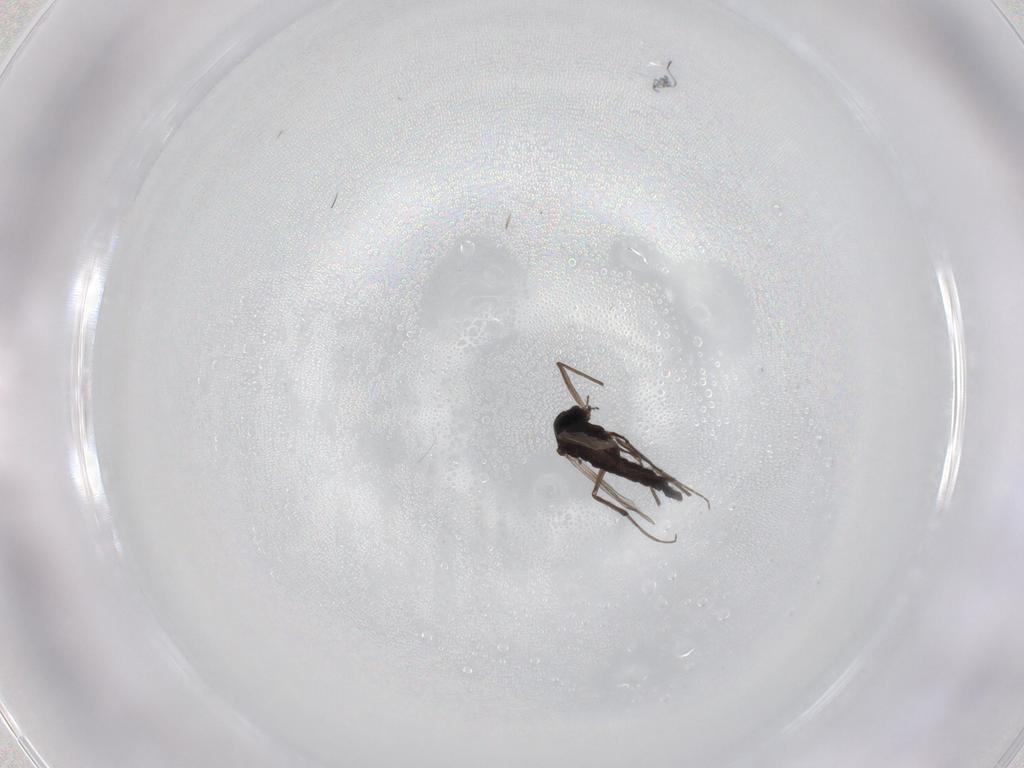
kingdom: Animalia
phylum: Arthropoda
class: Insecta
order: Diptera
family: Chironomidae
